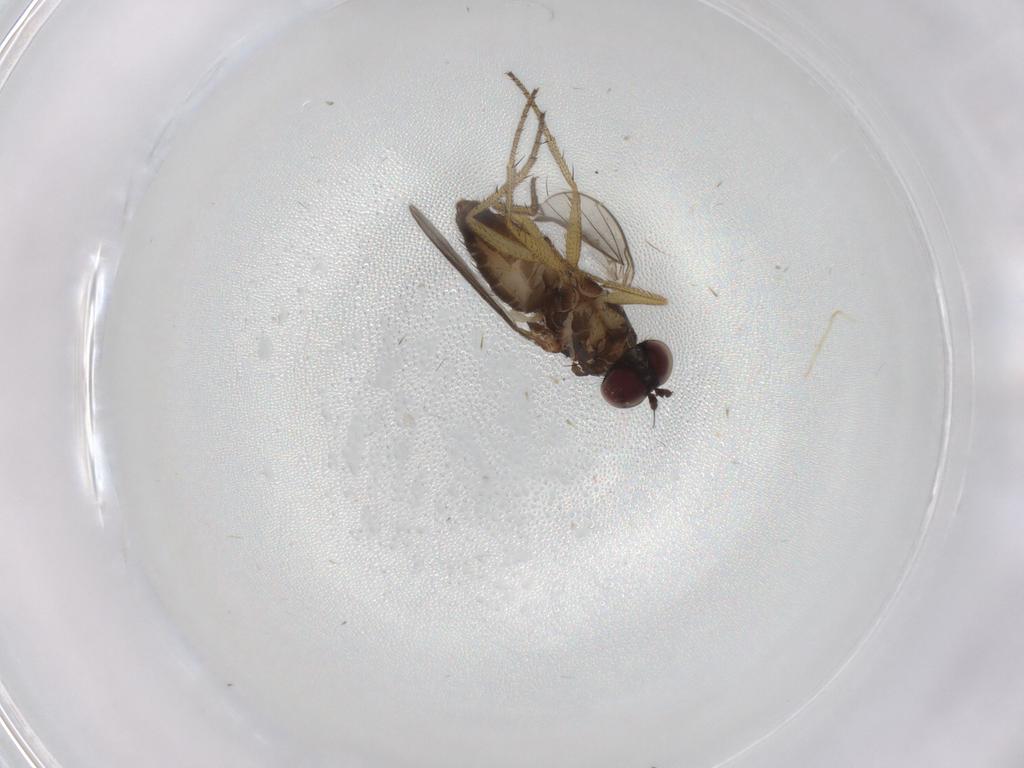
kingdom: Animalia
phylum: Arthropoda
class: Insecta
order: Diptera
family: Dolichopodidae
